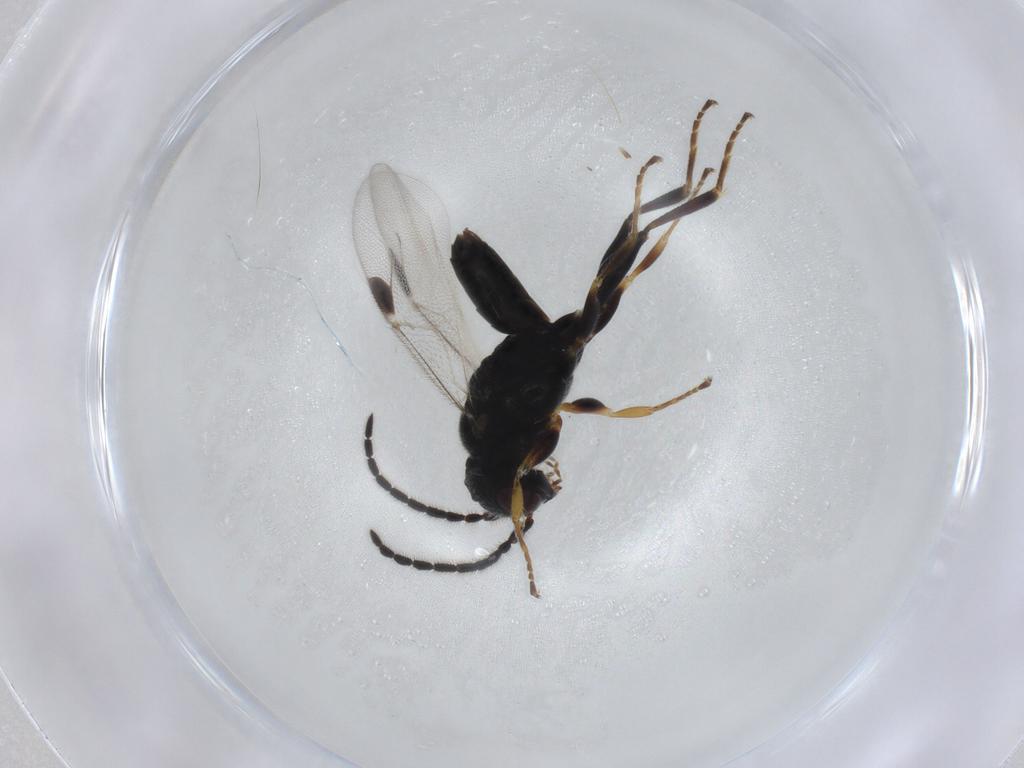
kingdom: Animalia
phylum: Arthropoda
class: Insecta
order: Hymenoptera
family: Dryinidae
